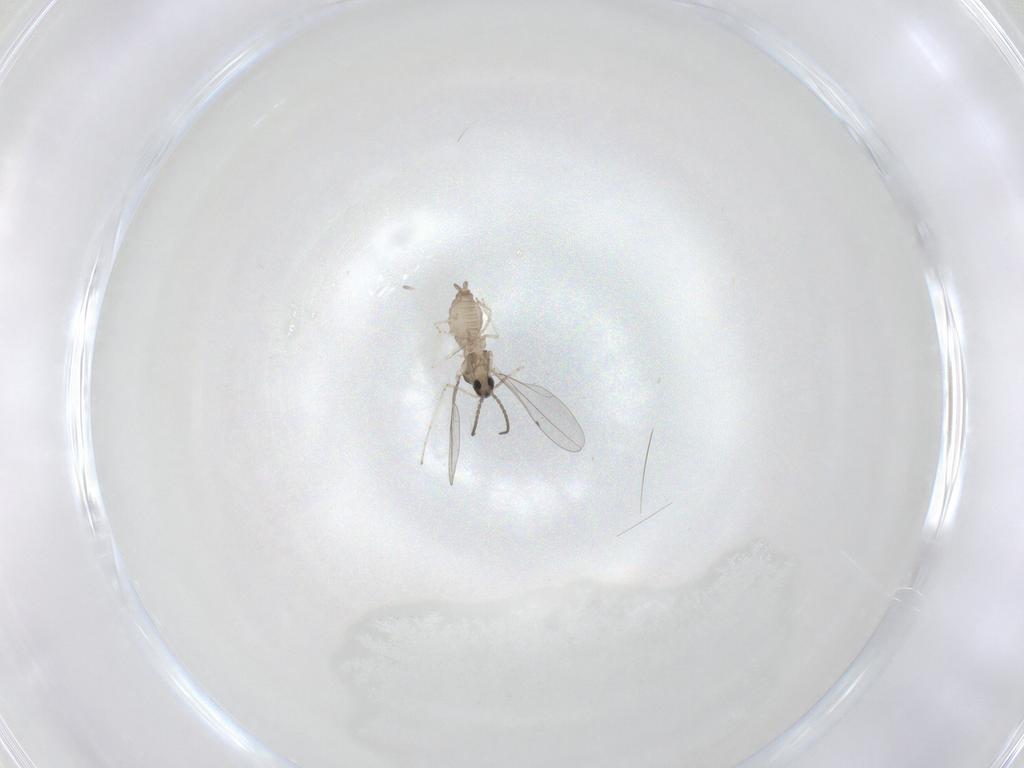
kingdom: Animalia
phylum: Arthropoda
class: Insecta
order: Diptera
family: Cecidomyiidae
